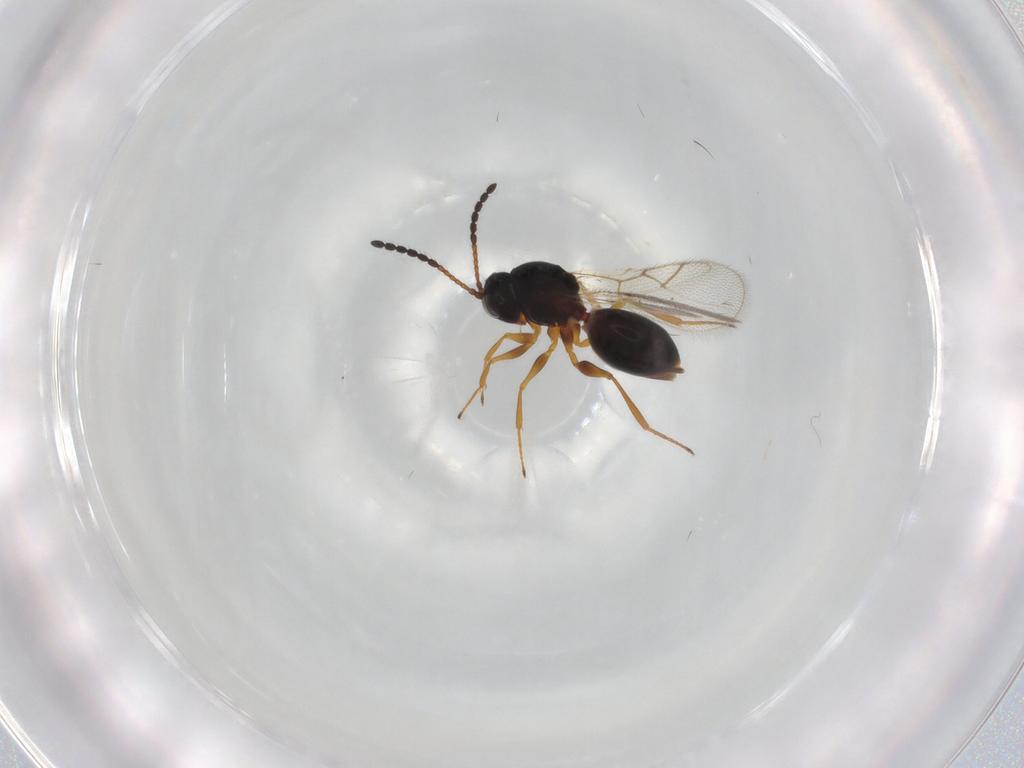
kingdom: Animalia
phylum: Arthropoda
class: Insecta
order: Hymenoptera
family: Figitidae
